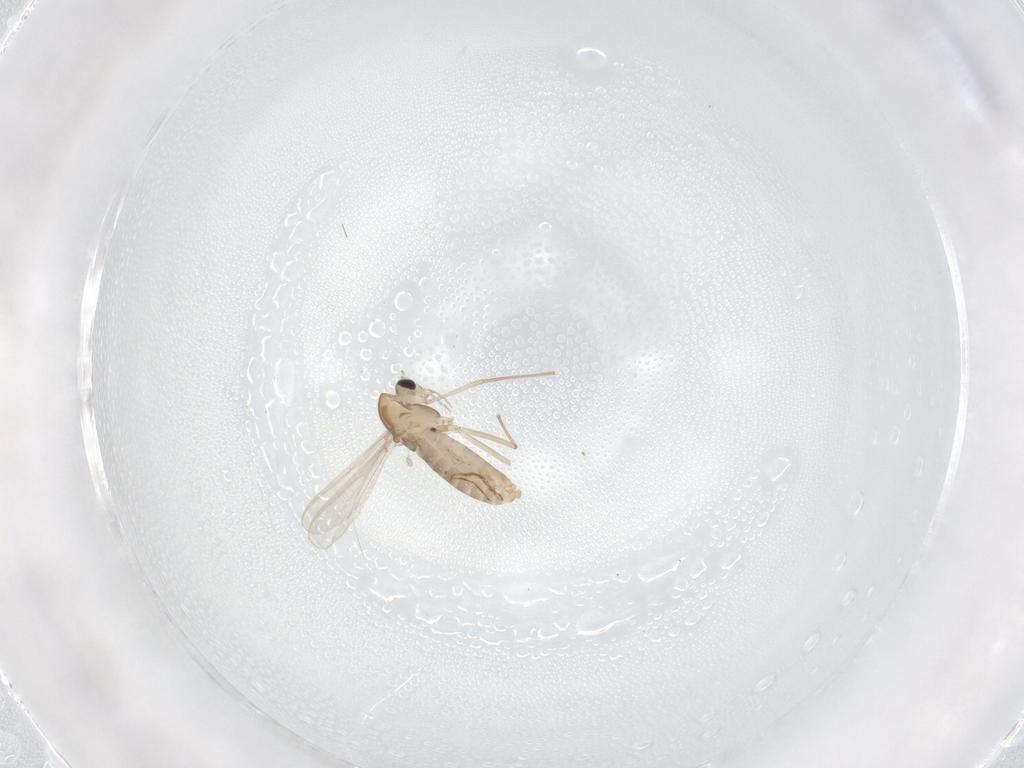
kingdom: Animalia
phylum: Arthropoda
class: Insecta
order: Diptera
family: Chironomidae
